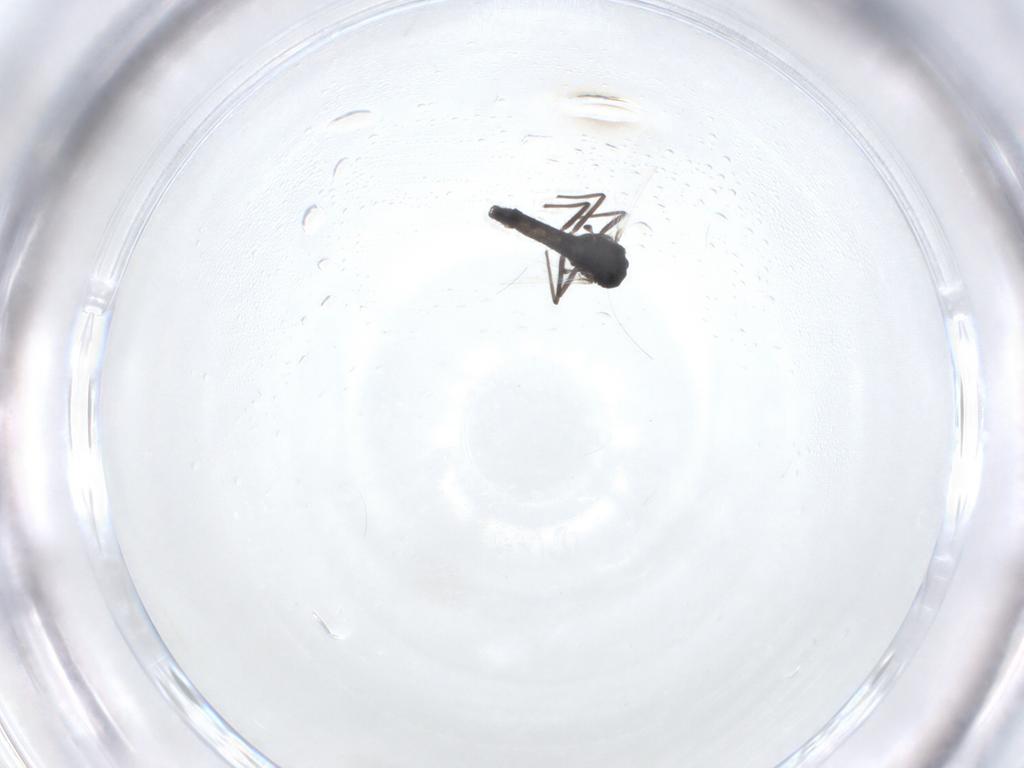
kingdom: Animalia
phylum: Arthropoda
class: Insecta
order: Diptera
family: Chironomidae
